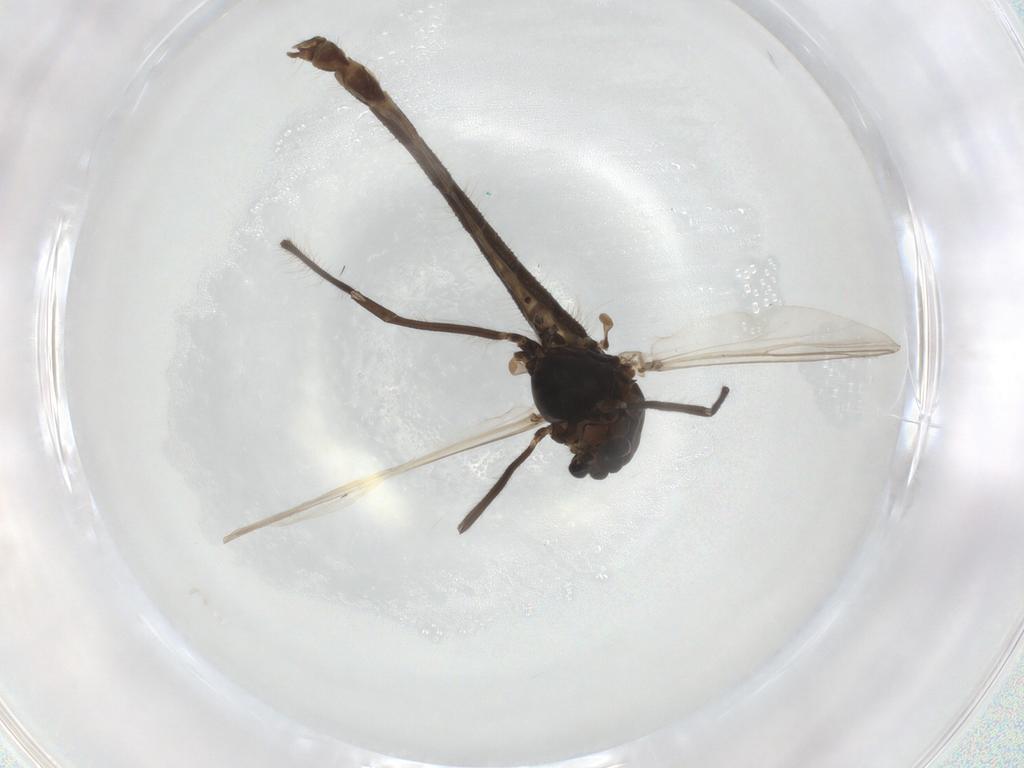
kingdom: Animalia
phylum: Arthropoda
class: Insecta
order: Diptera
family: Chironomidae
